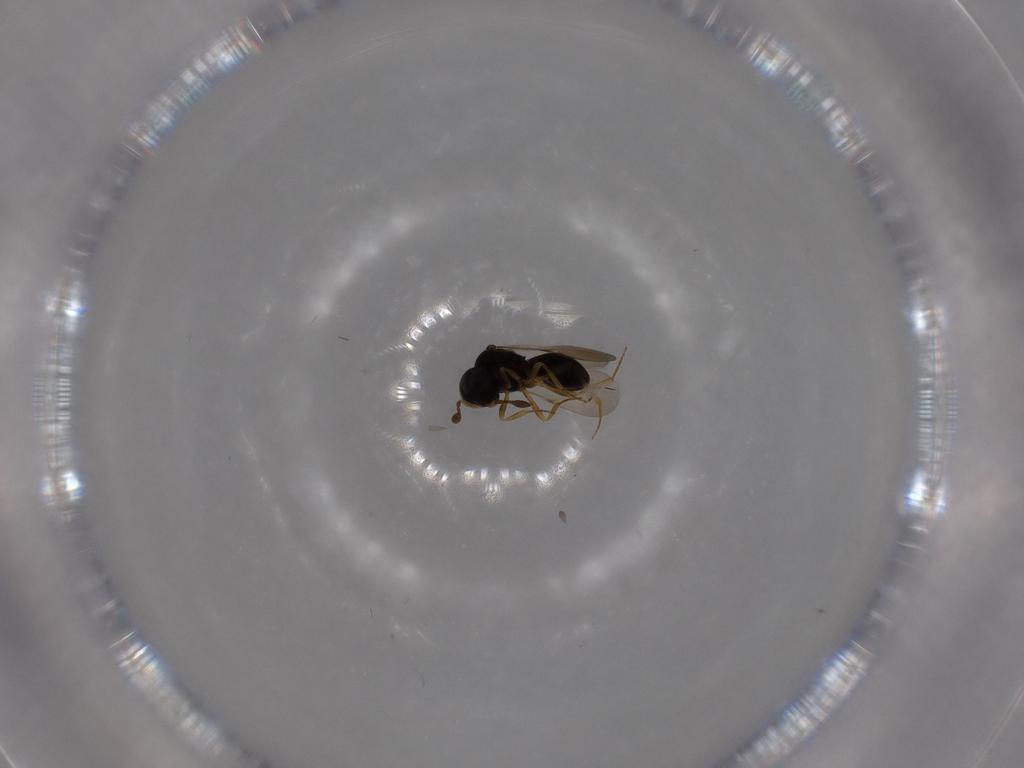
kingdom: Animalia
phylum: Arthropoda
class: Insecta
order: Hymenoptera
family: Scelionidae
